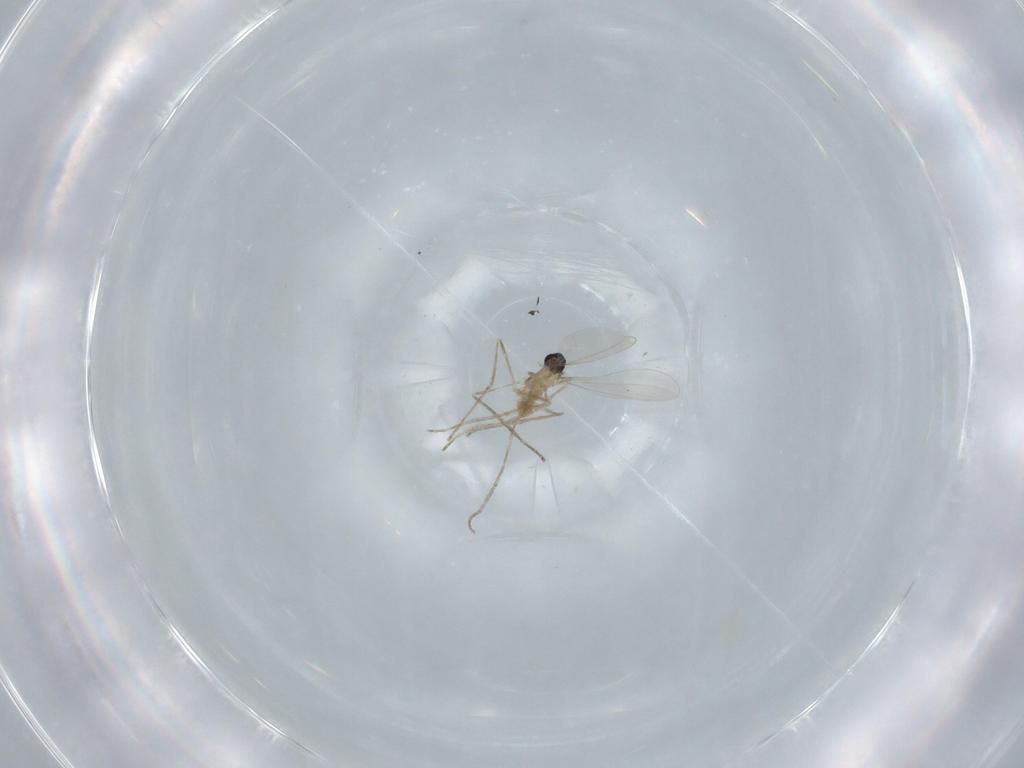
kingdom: Animalia
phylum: Arthropoda
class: Insecta
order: Diptera
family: Cecidomyiidae
